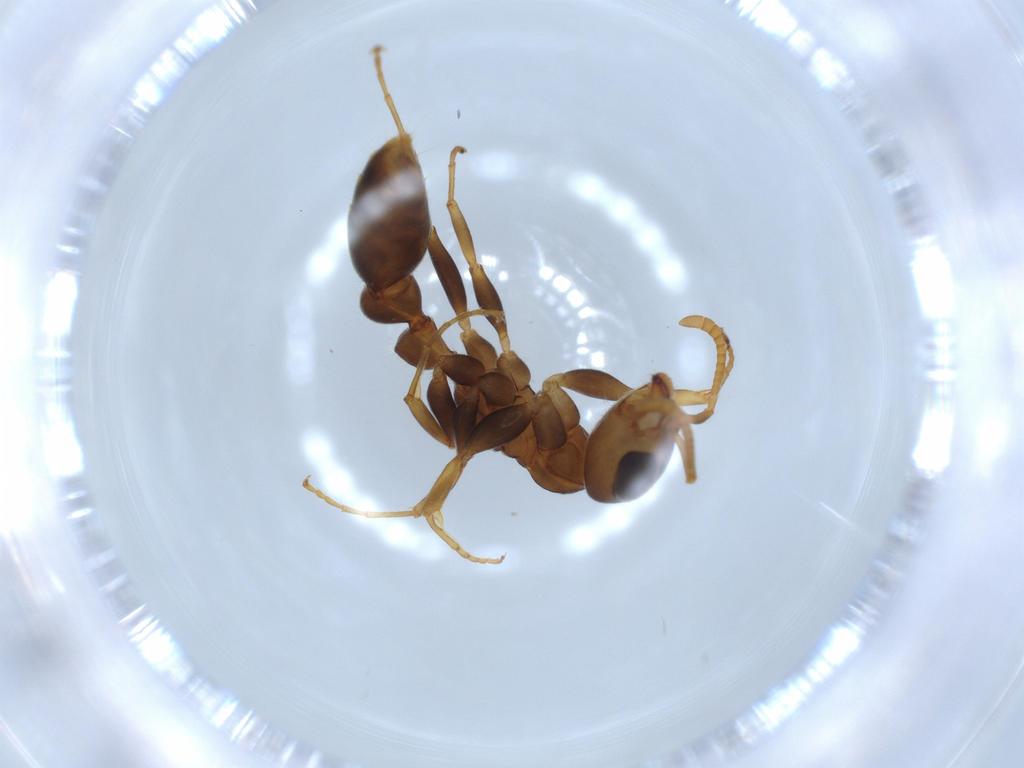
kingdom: Animalia
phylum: Arthropoda
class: Insecta
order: Hymenoptera
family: Formicidae
